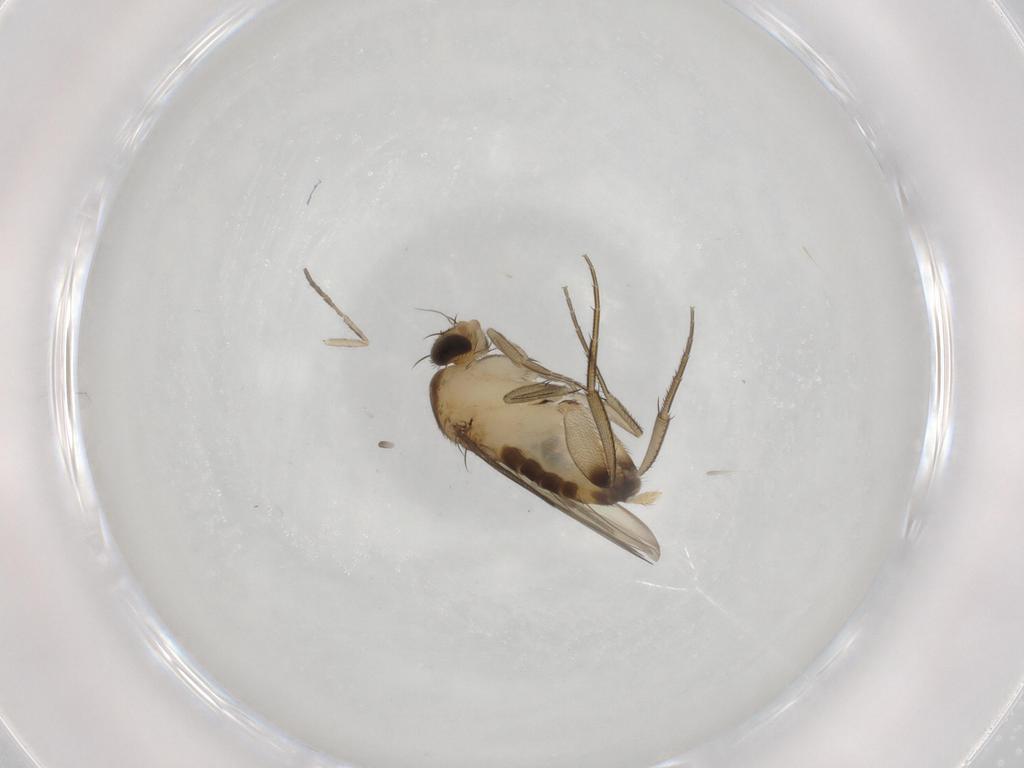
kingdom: Animalia
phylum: Arthropoda
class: Insecta
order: Diptera
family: Phoridae
